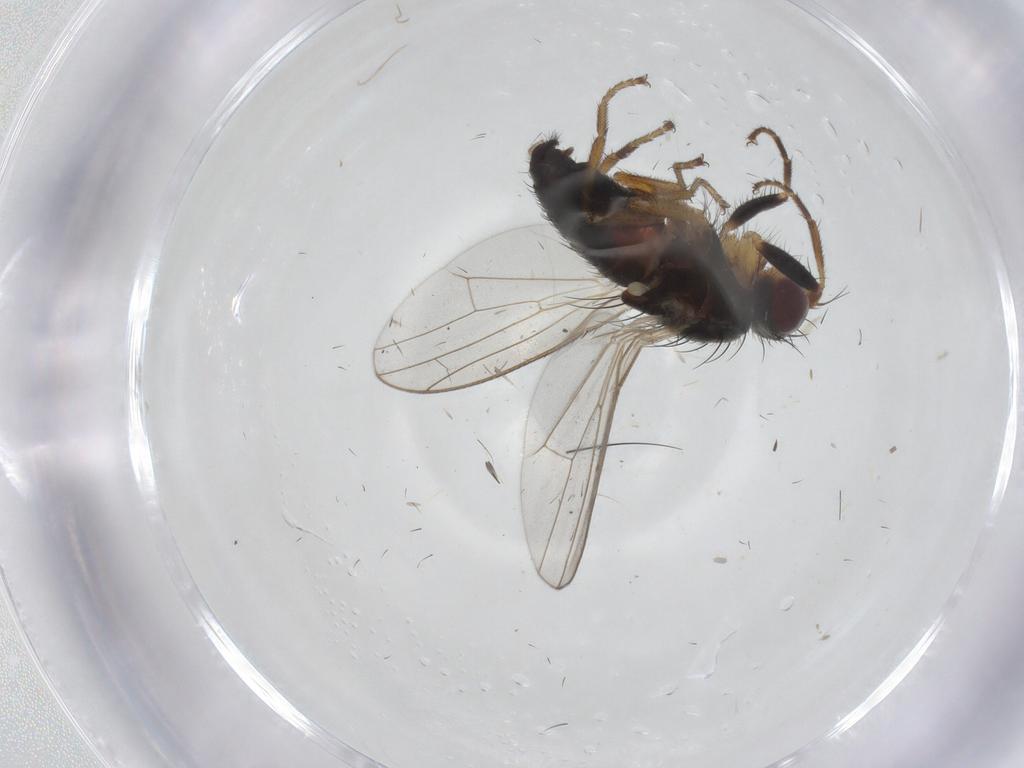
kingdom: Animalia
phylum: Arthropoda
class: Insecta
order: Diptera
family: Heleomyzidae
